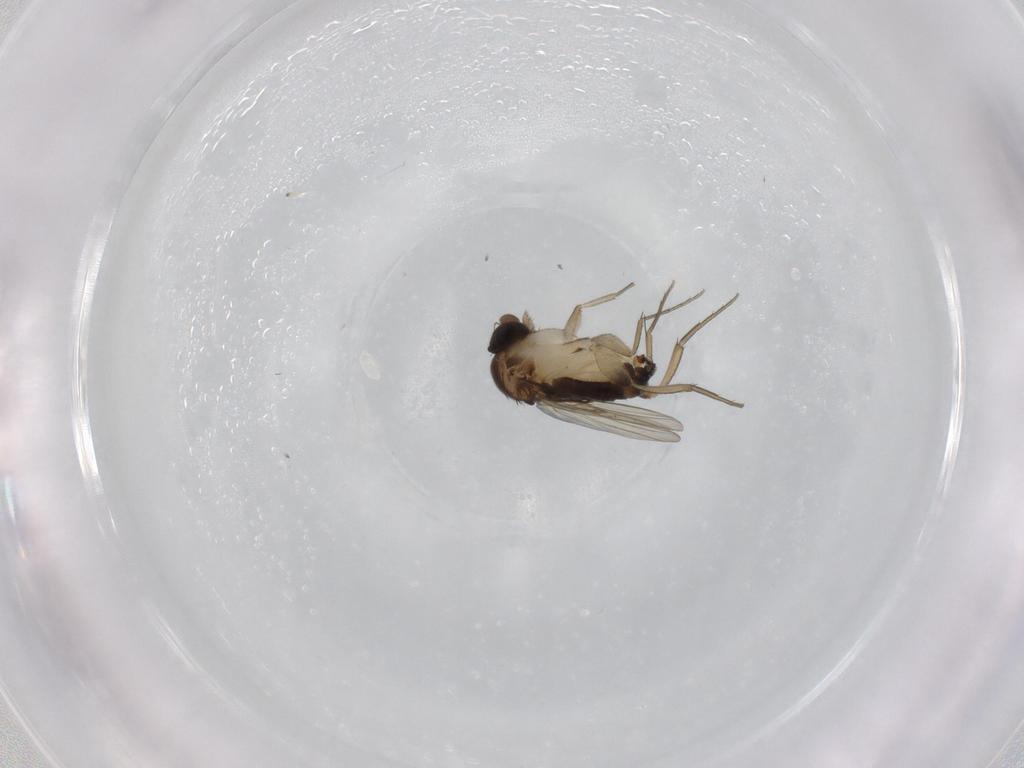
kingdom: Animalia
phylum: Arthropoda
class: Insecta
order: Diptera
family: Phoridae
